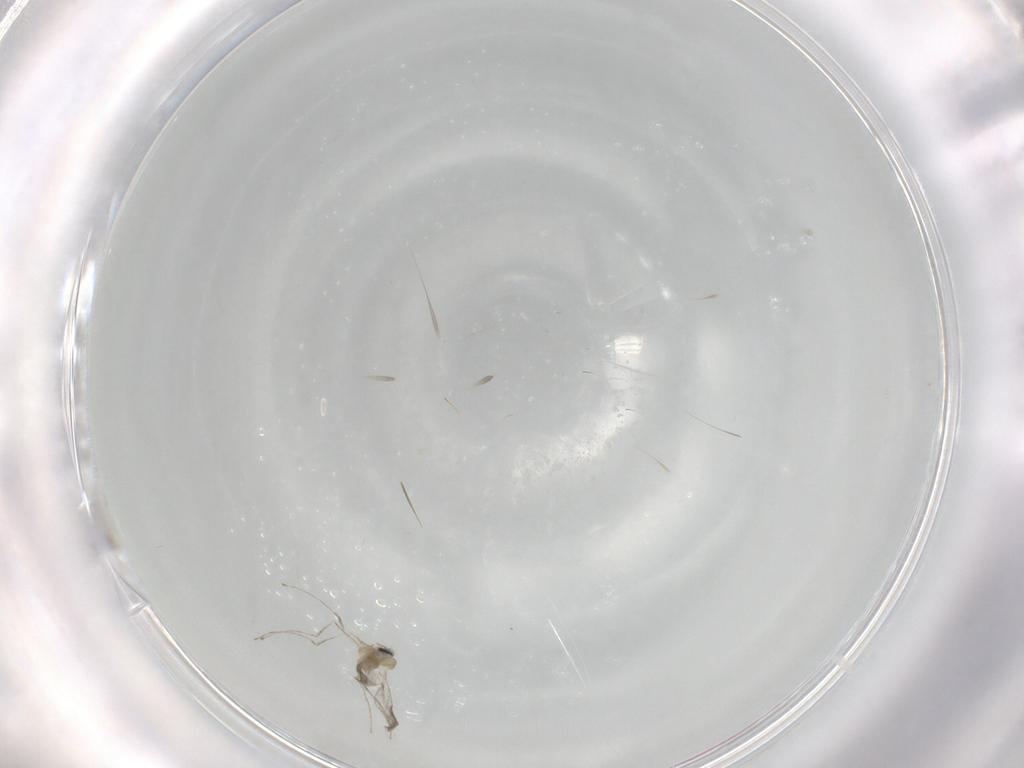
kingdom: Animalia
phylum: Arthropoda
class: Insecta
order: Diptera
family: Cecidomyiidae
